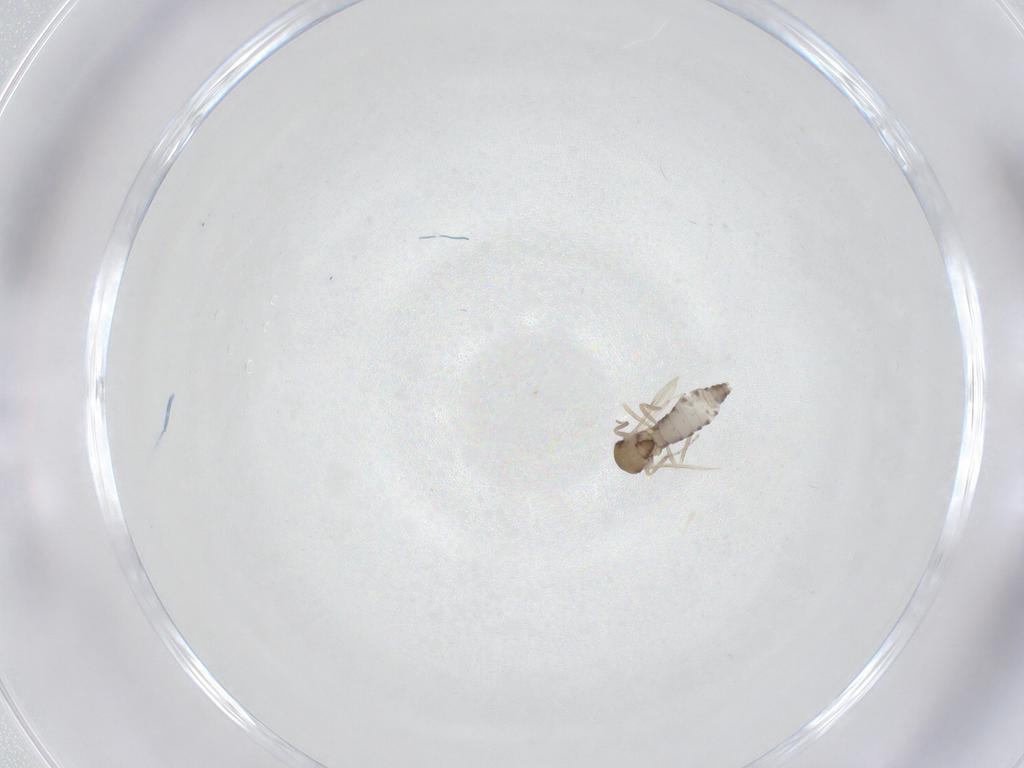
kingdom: Animalia
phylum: Arthropoda
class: Insecta
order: Diptera
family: Ceratopogonidae
